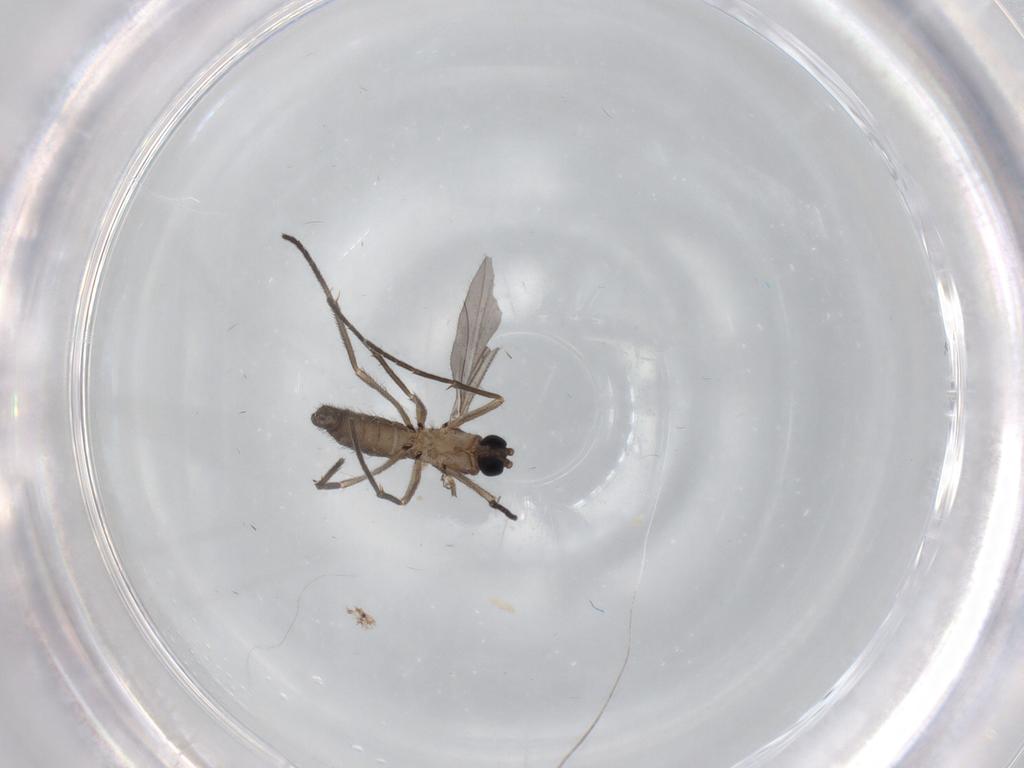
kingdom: Animalia
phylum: Arthropoda
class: Insecta
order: Diptera
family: Sciaridae
